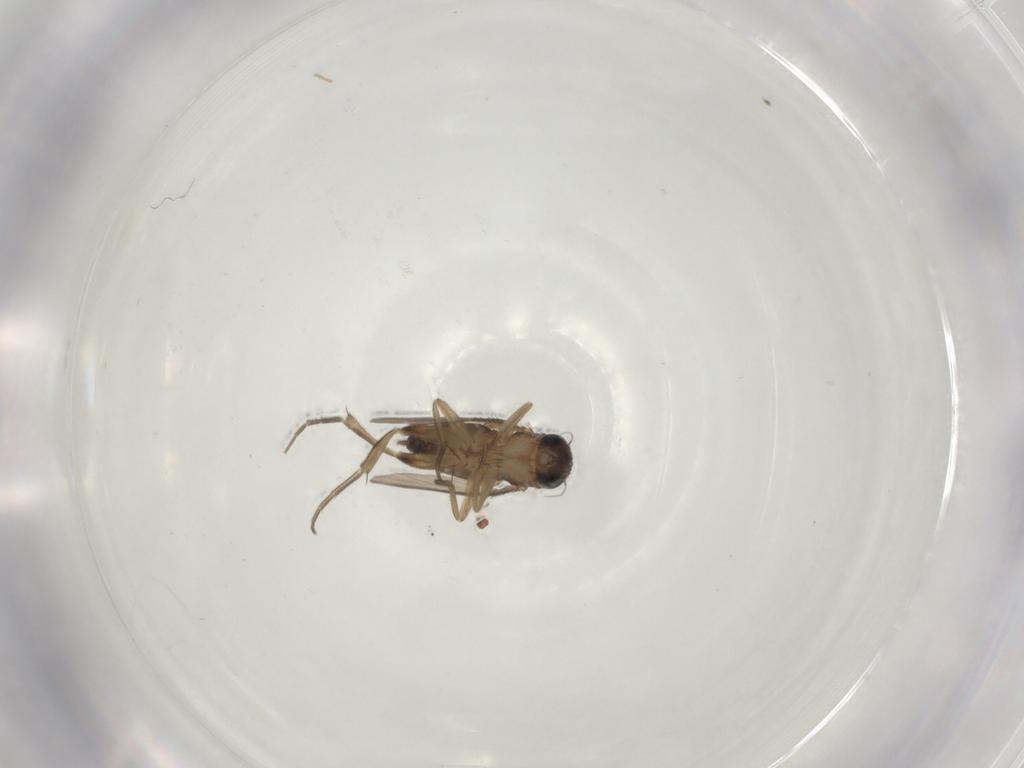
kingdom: Animalia
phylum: Arthropoda
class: Insecta
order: Diptera
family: Phoridae
